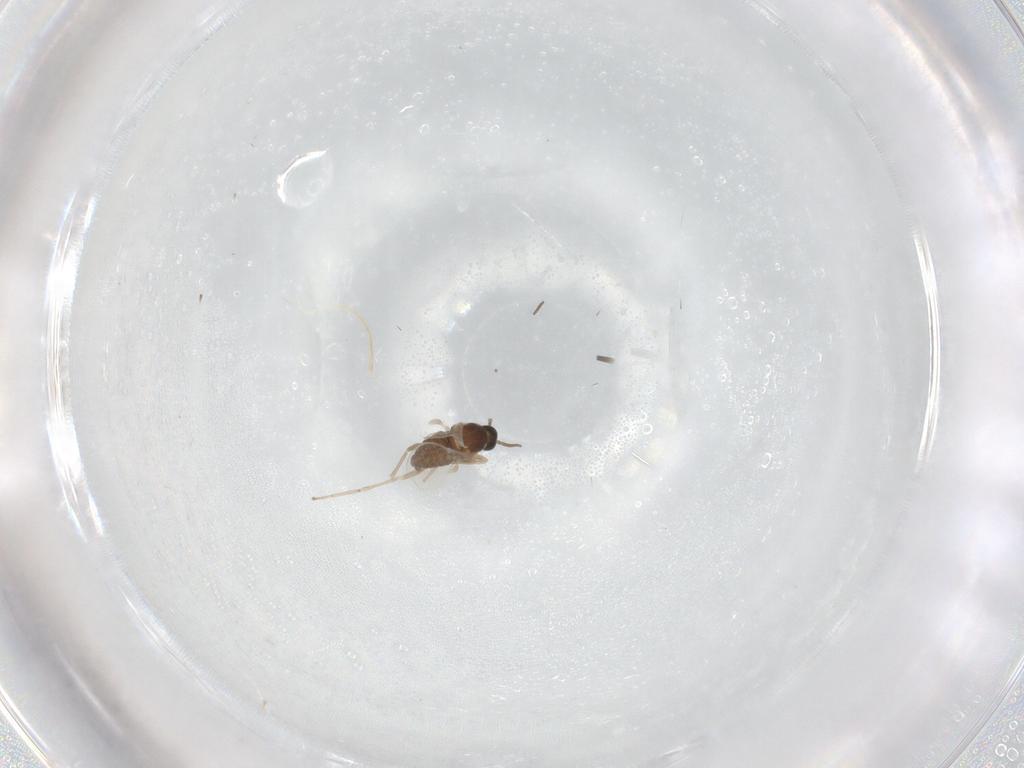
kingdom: Animalia
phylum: Arthropoda
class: Insecta
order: Diptera
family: Cecidomyiidae
